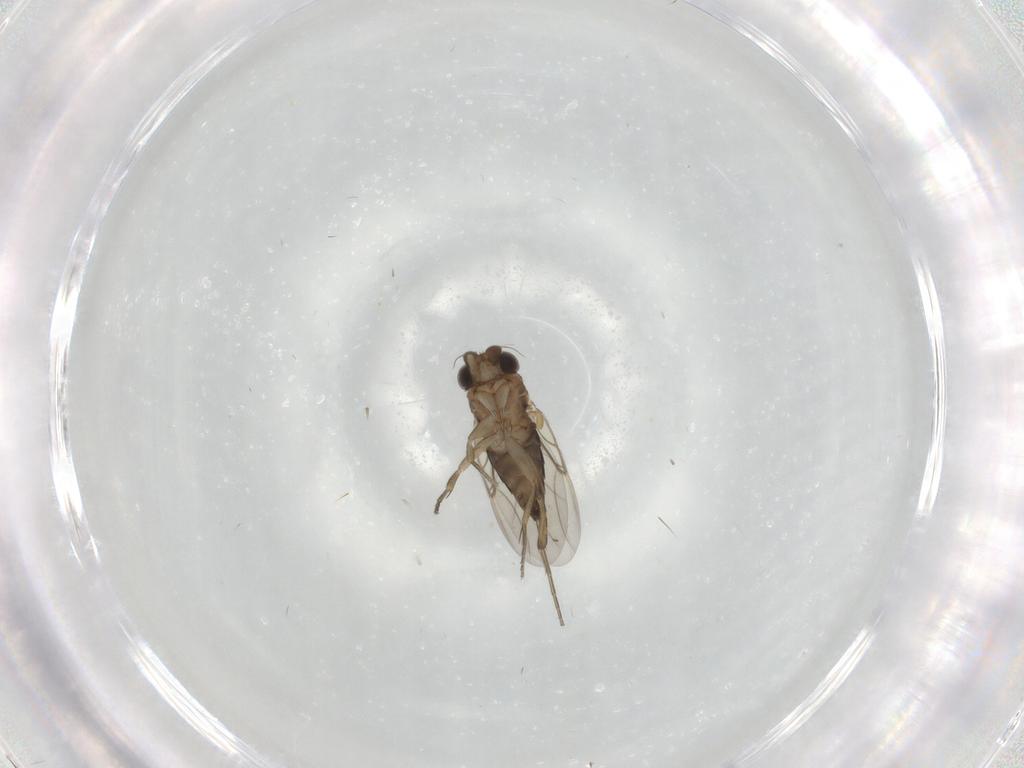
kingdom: Animalia
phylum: Arthropoda
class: Insecta
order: Diptera
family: Phoridae
